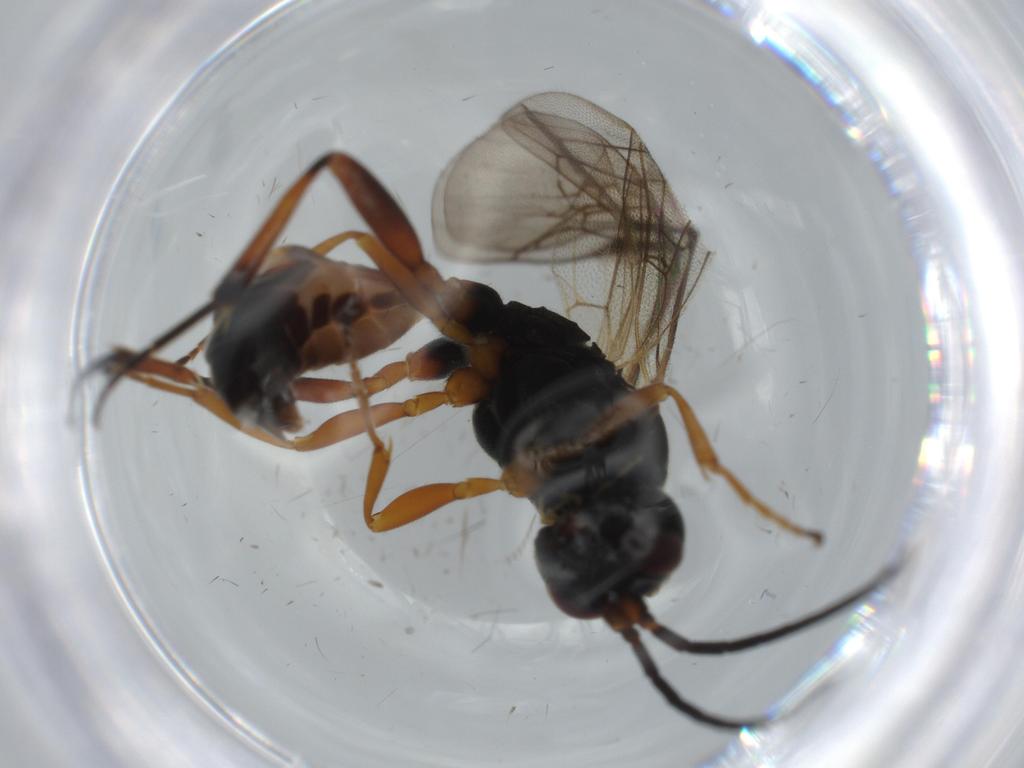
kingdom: Animalia
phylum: Arthropoda
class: Insecta
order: Hymenoptera
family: Ichneumonidae
